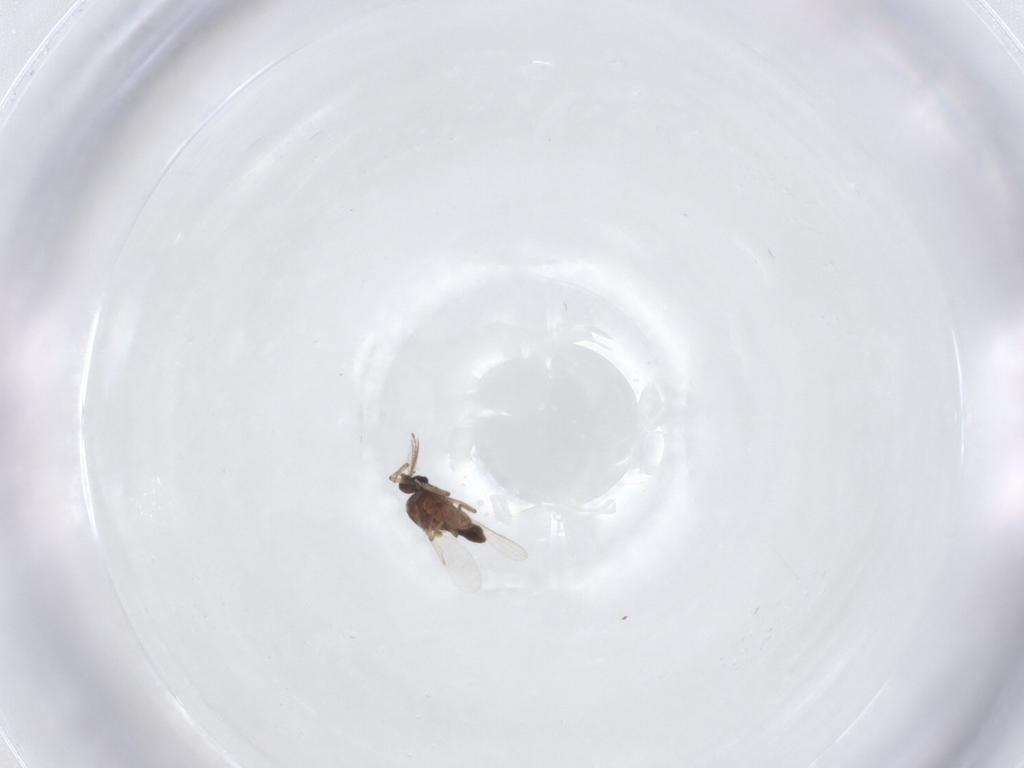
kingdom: Animalia
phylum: Arthropoda
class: Insecta
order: Diptera
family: Ceratopogonidae
